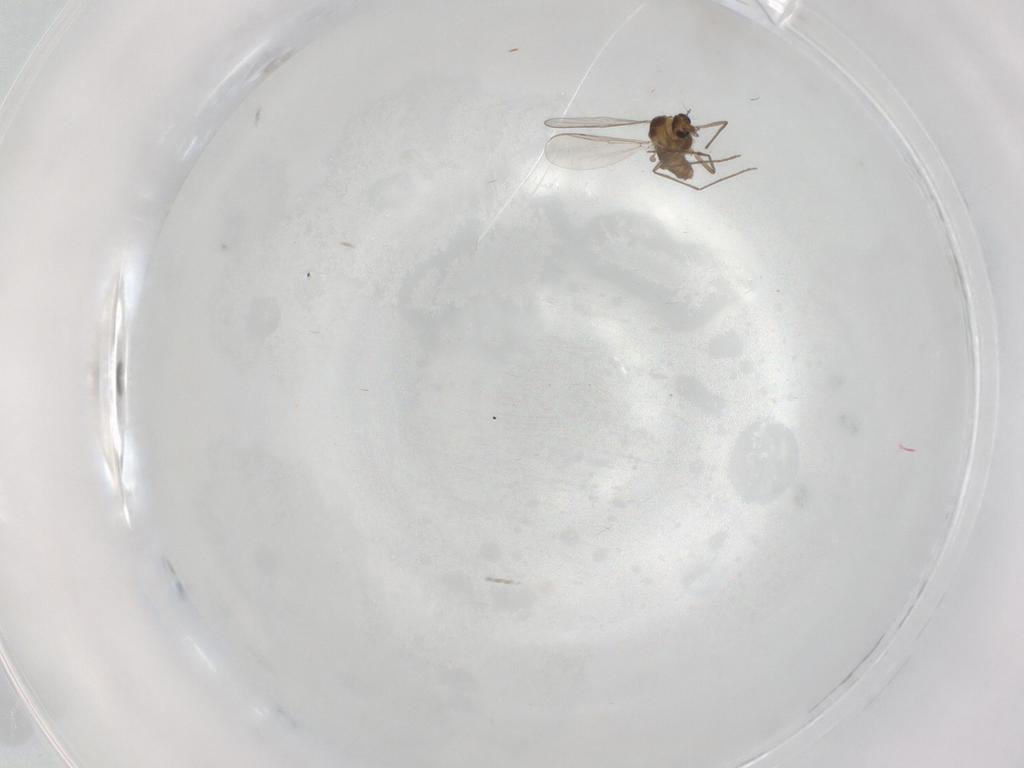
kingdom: Animalia
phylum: Arthropoda
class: Insecta
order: Diptera
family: Chironomidae
